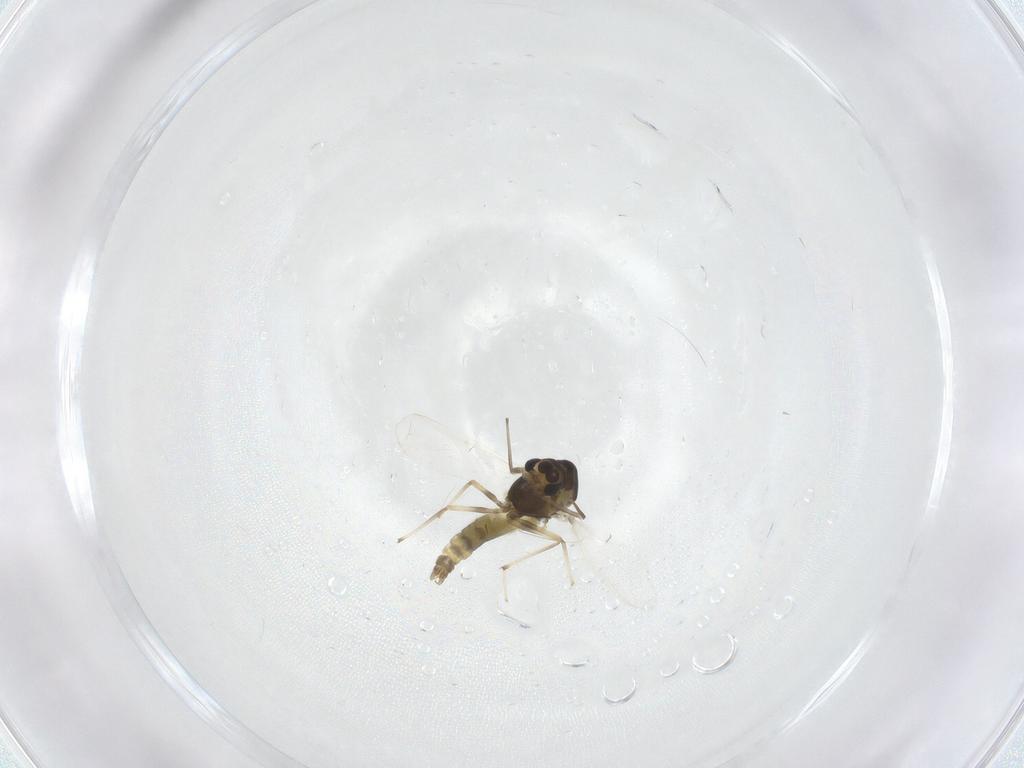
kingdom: Animalia
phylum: Arthropoda
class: Insecta
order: Diptera
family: Chironomidae
